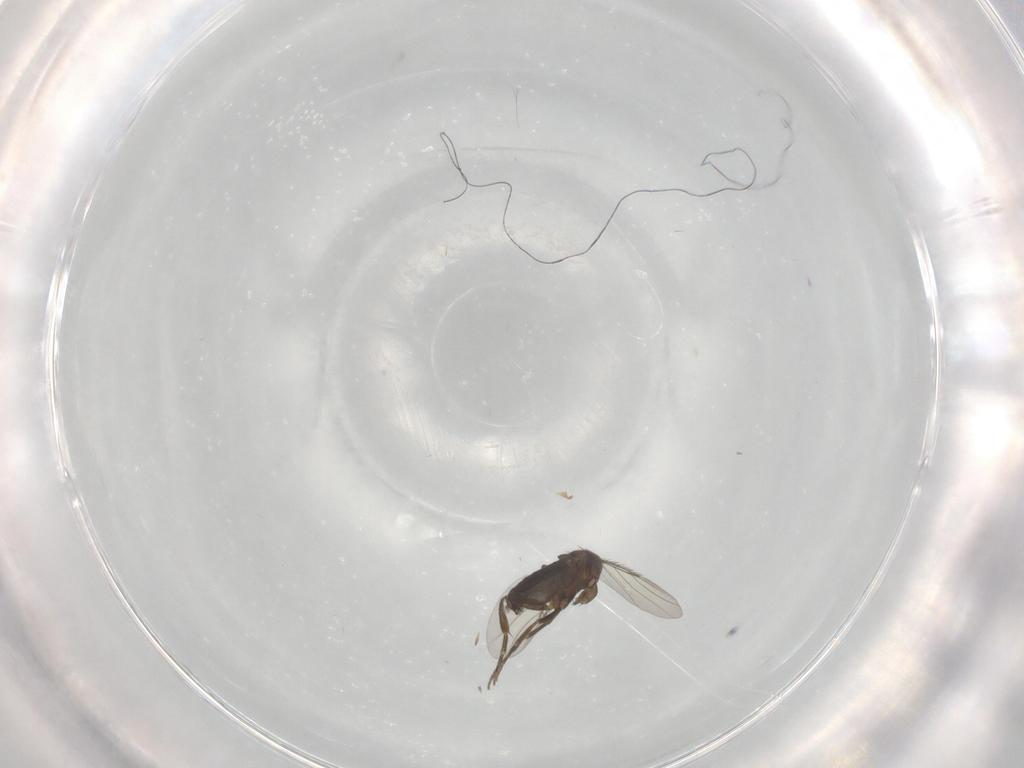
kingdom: Animalia
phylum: Arthropoda
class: Insecta
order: Diptera
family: Phoridae
